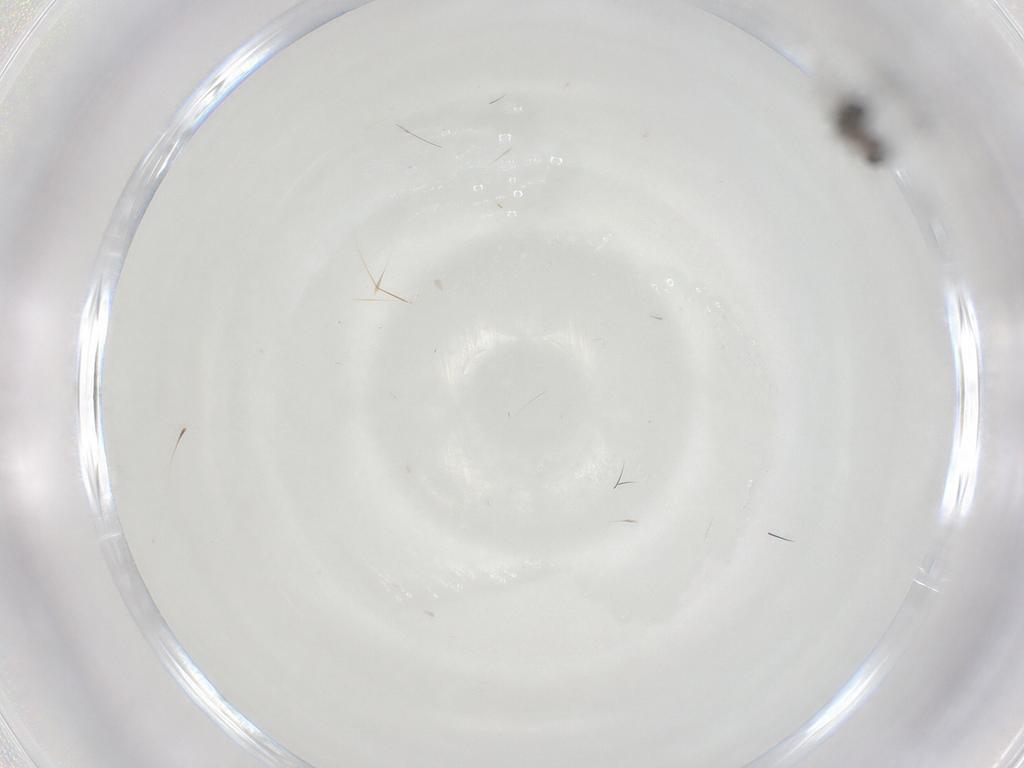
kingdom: Animalia
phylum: Arthropoda
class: Insecta
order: Diptera
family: Sciaridae
